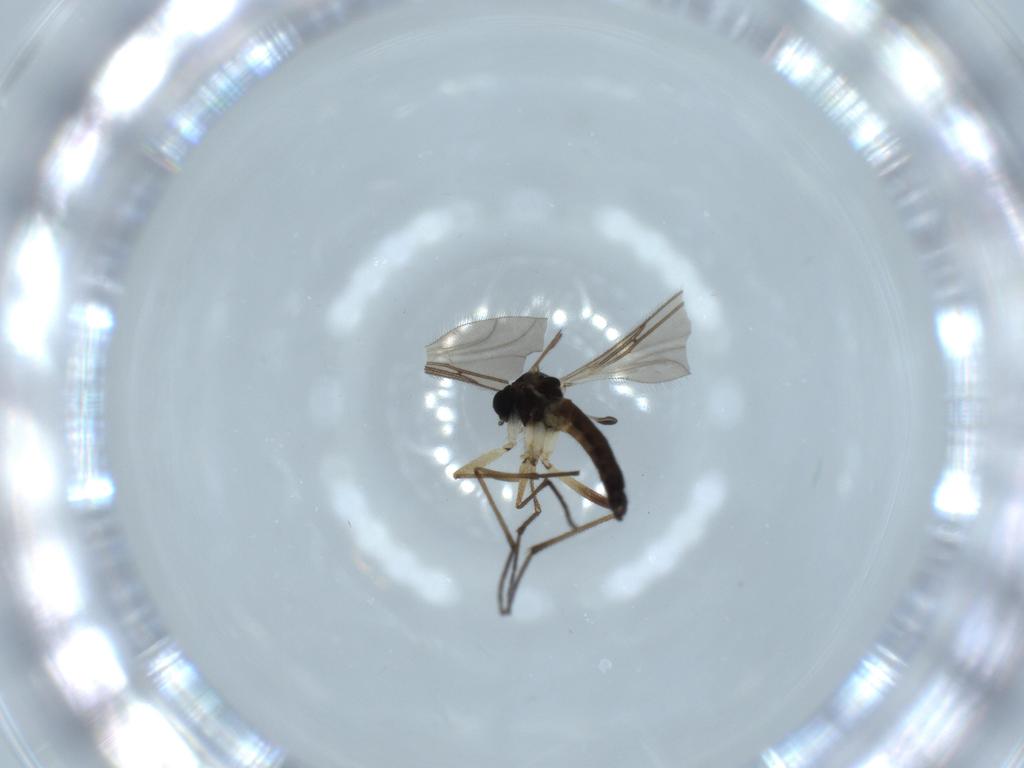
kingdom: Animalia
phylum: Arthropoda
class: Insecta
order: Diptera
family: Sciaridae
